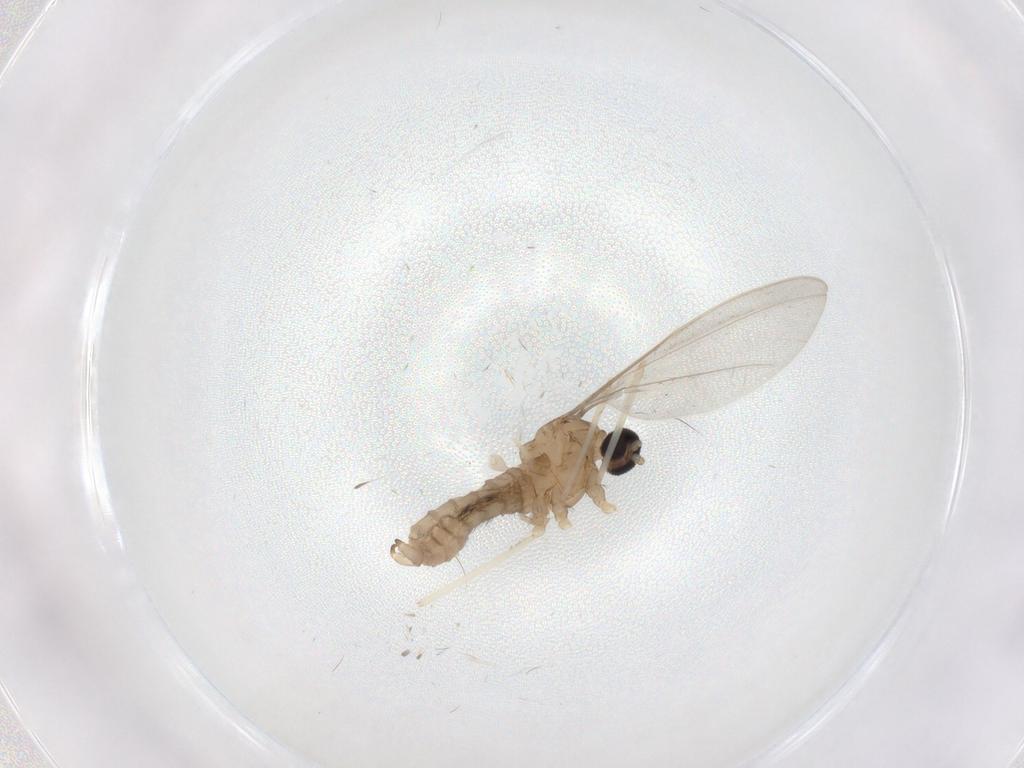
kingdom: Animalia
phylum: Arthropoda
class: Insecta
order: Diptera
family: Cecidomyiidae
